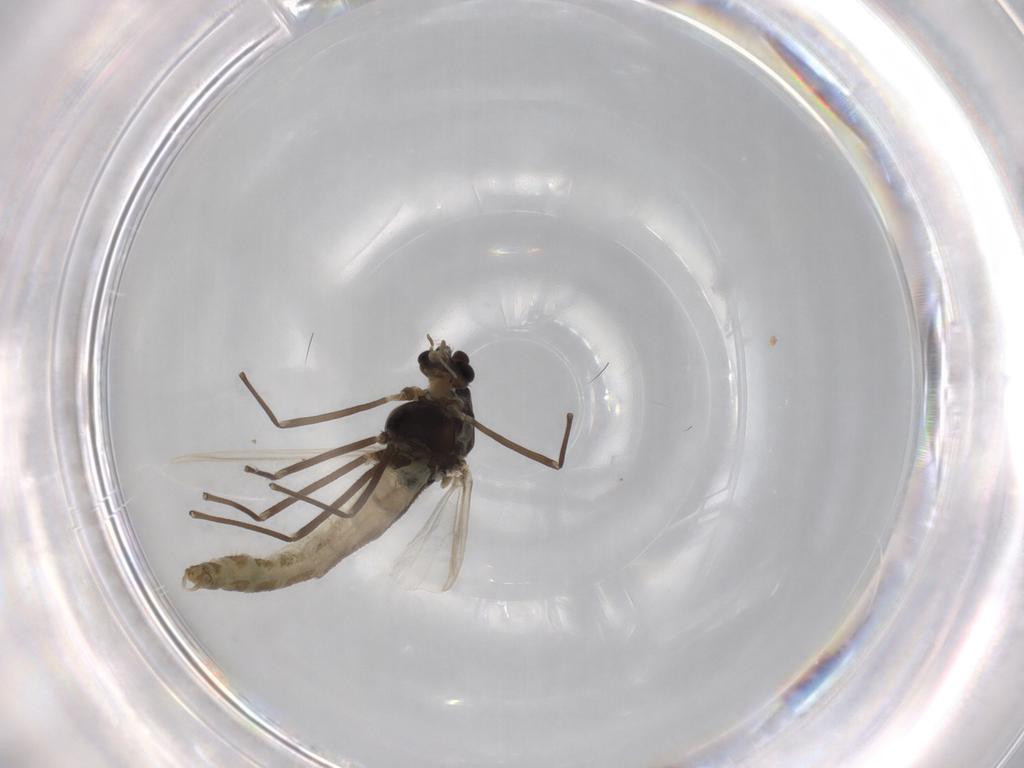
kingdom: Animalia
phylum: Arthropoda
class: Insecta
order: Diptera
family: Chironomidae
